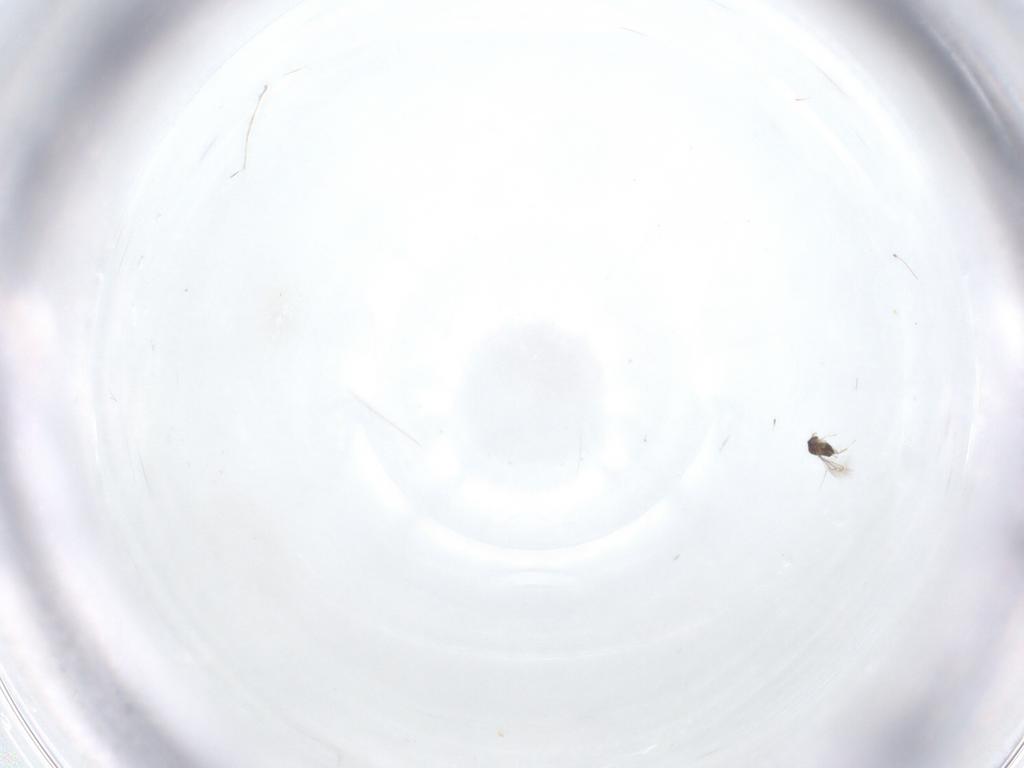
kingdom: Animalia
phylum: Arthropoda
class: Insecta
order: Hymenoptera
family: Mymaridae
